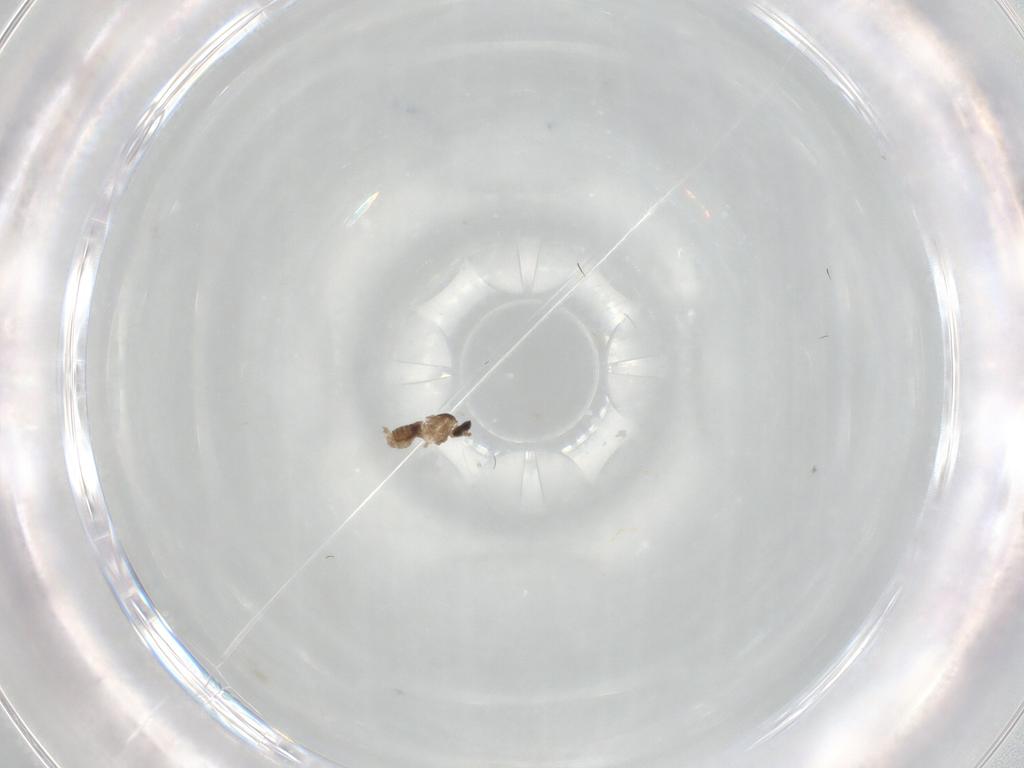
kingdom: Animalia
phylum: Arthropoda
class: Insecta
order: Diptera
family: Cecidomyiidae
